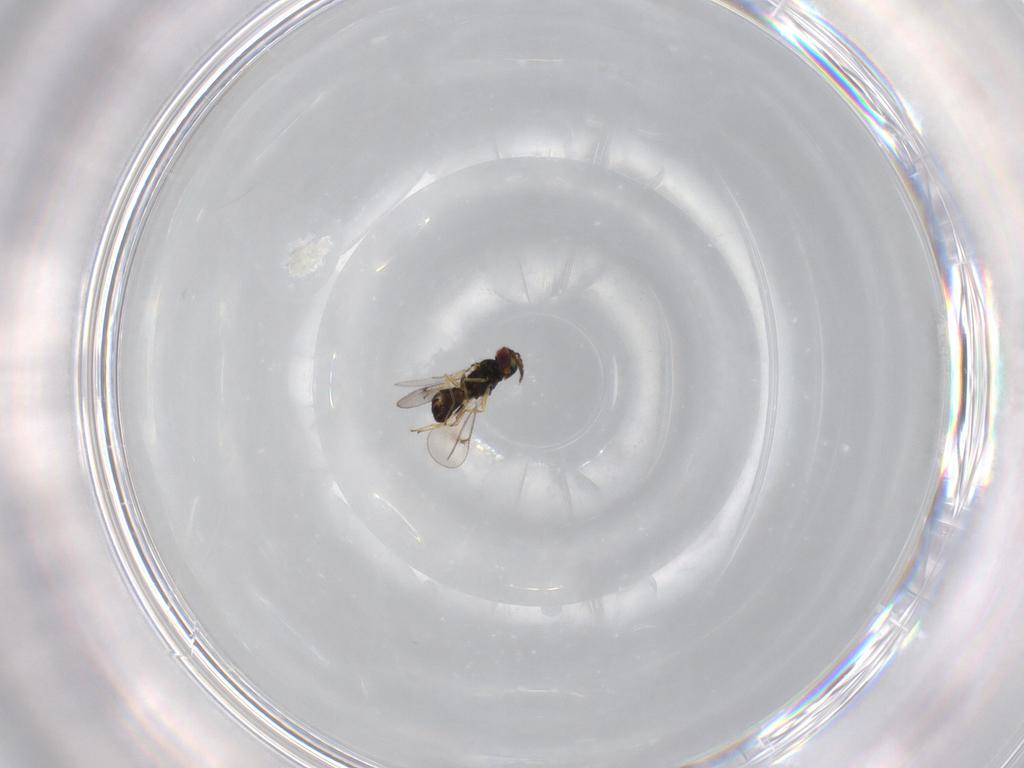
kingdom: Animalia
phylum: Arthropoda
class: Insecta
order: Hymenoptera
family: Eulophidae
